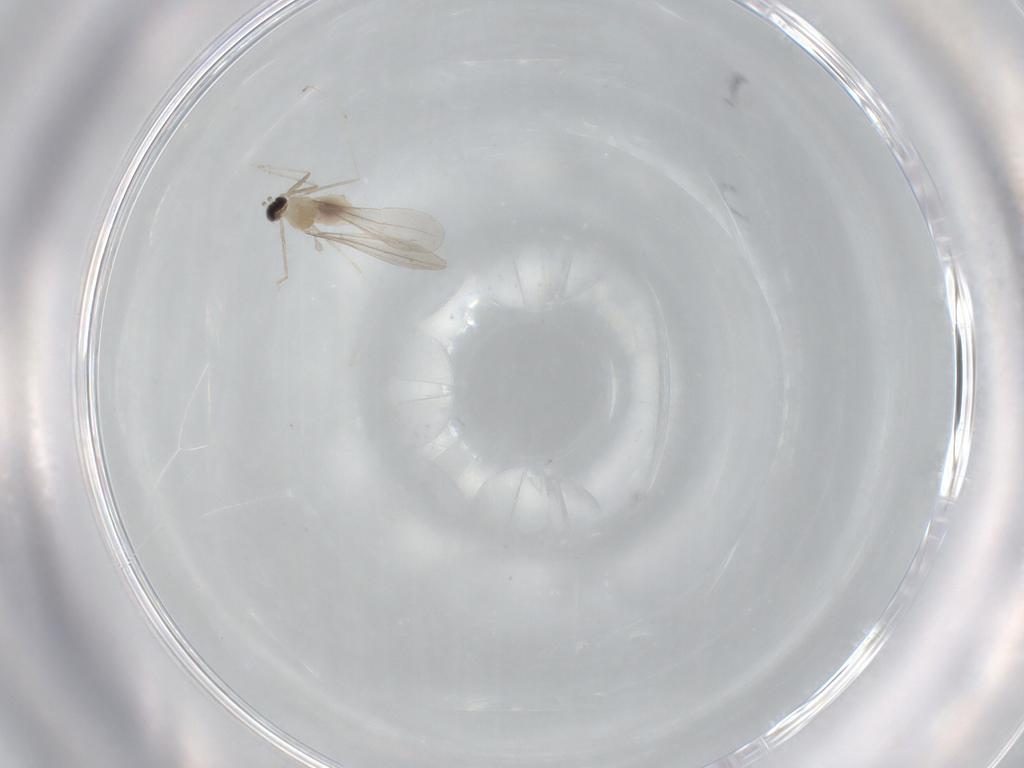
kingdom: Animalia
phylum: Arthropoda
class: Insecta
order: Diptera
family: Cecidomyiidae
